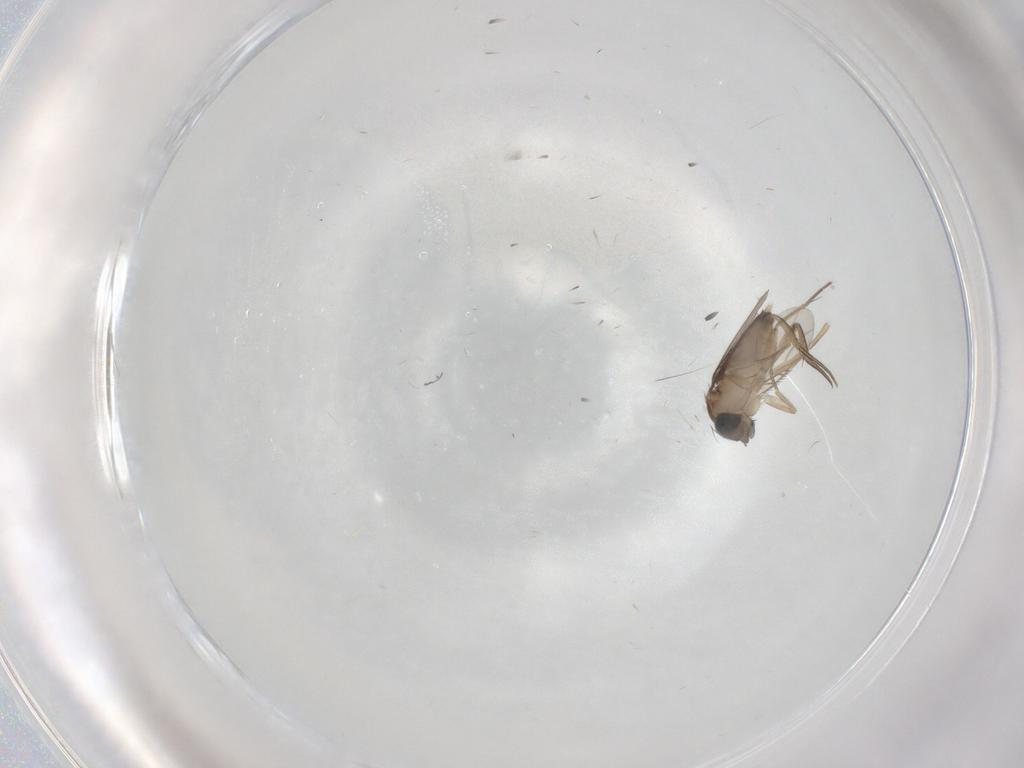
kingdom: Animalia
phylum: Arthropoda
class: Insecta
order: Diptera
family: Phoridae
